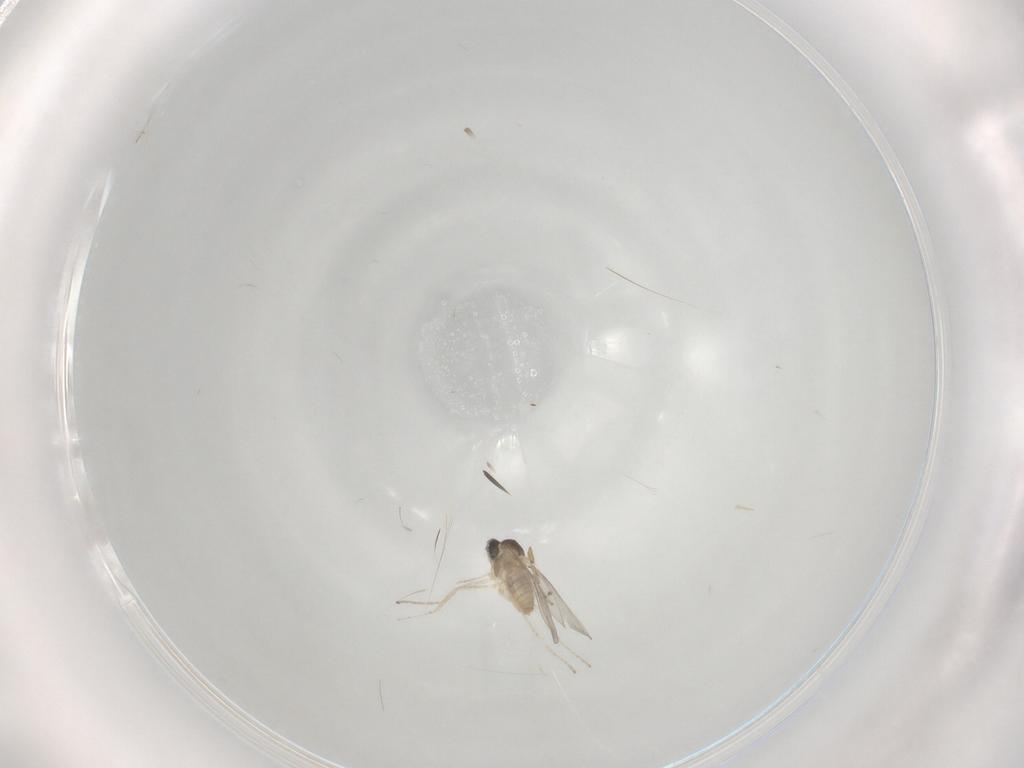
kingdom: Animalia
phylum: Arthropoda
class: Insecta
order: Diptera
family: Cecidomyiidae
